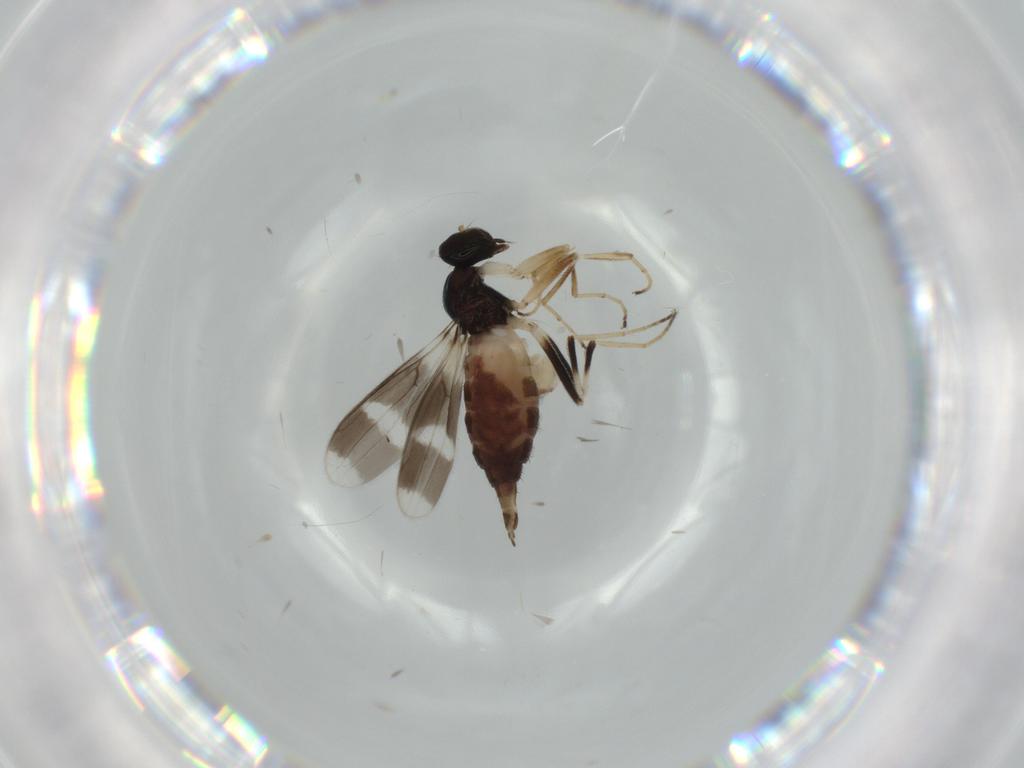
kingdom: Animalia
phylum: Arthropoda
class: Insecta
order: Diptera
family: Hybotidae
